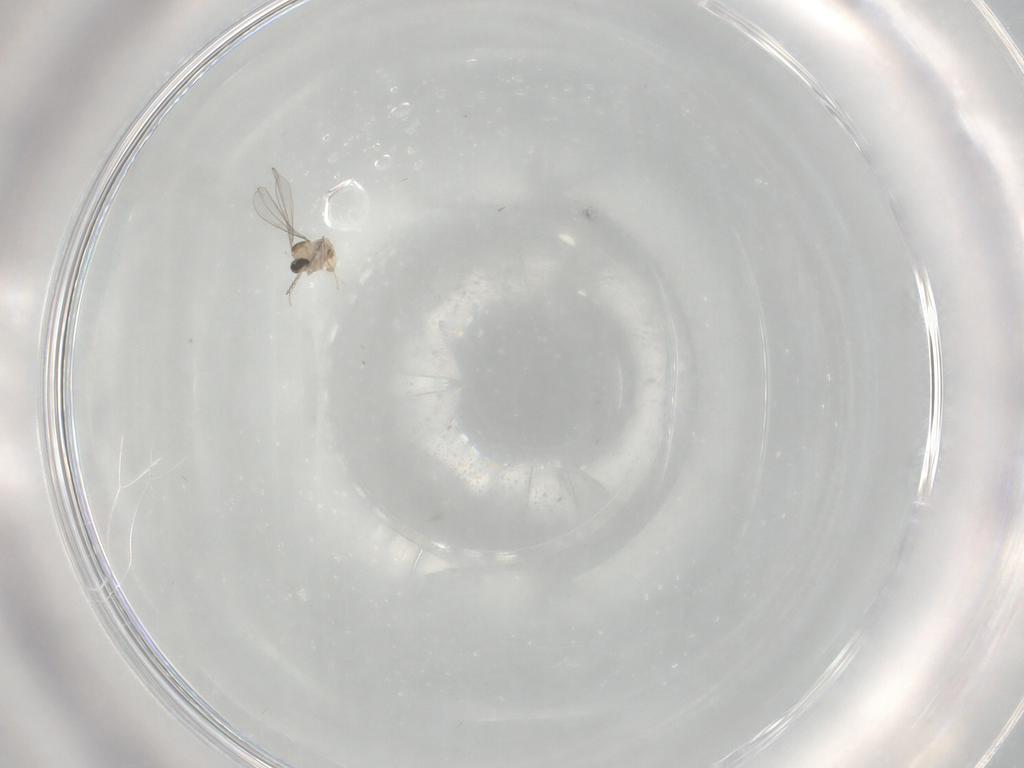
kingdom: Animalia
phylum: Arthropoda
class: Insecta
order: Diptera
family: Cecidomyiidae
